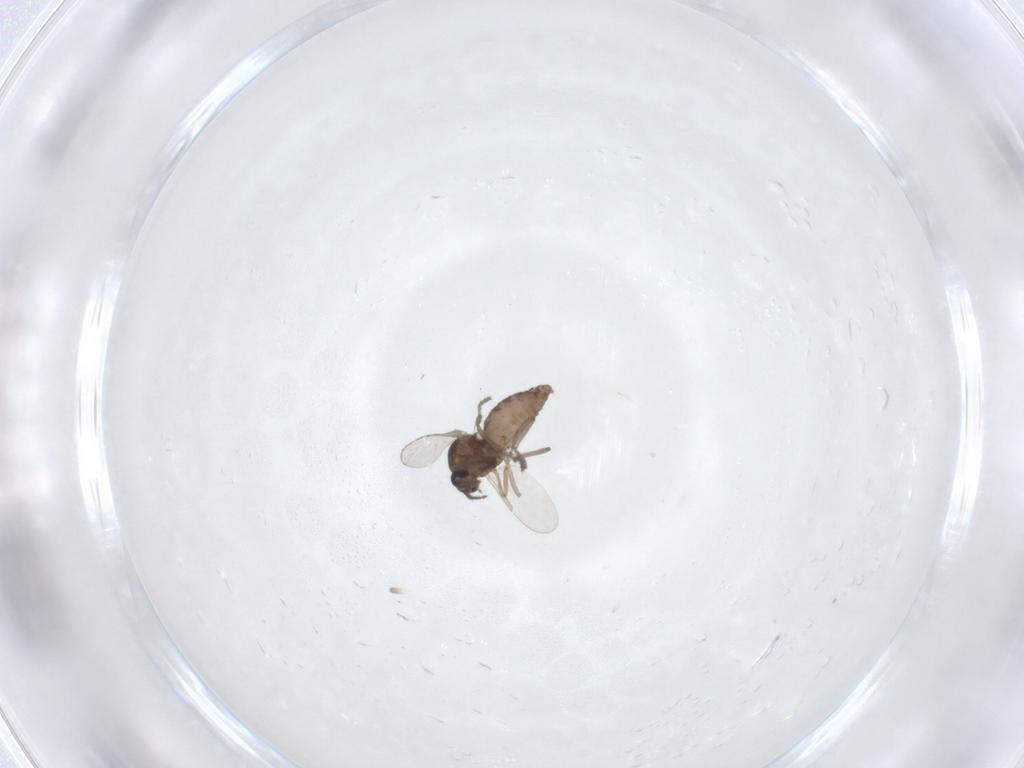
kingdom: Animalia
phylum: Arthropoda
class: Insecta
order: Diptera
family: Ceratopogonidae
